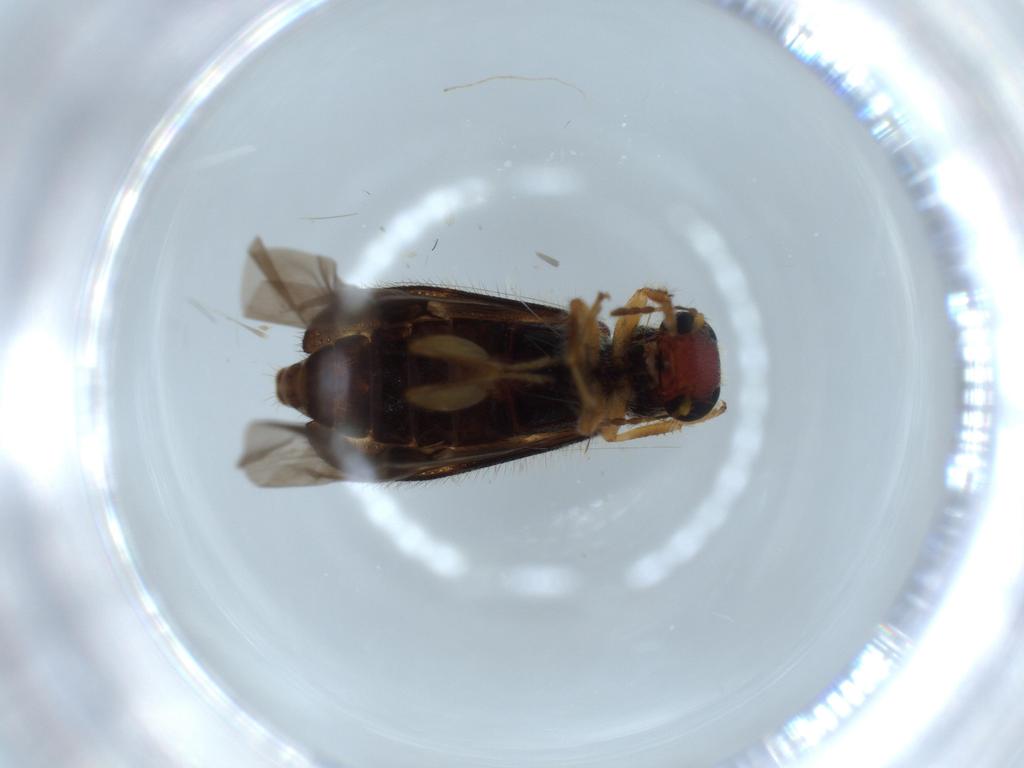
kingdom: Animalia
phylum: Arthropoda
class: Insecta
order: Coleoptera
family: Cleridae
